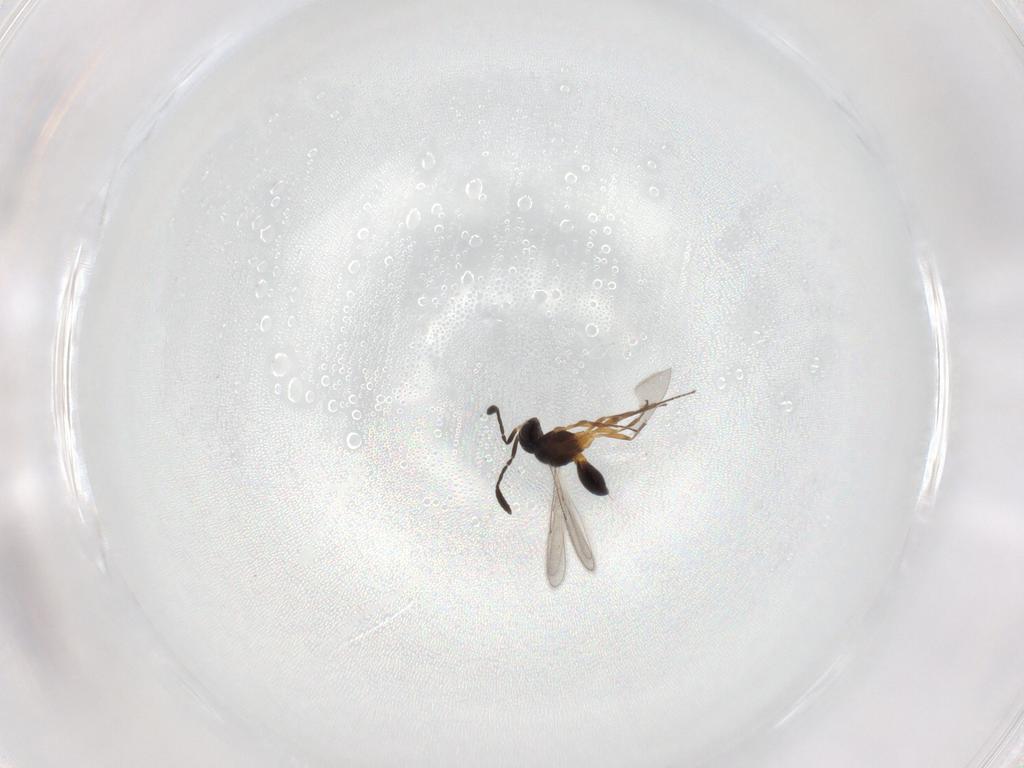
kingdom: Animalia
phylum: Arthropoda
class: Insecta
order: Hymenoptera
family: Scelionidae
